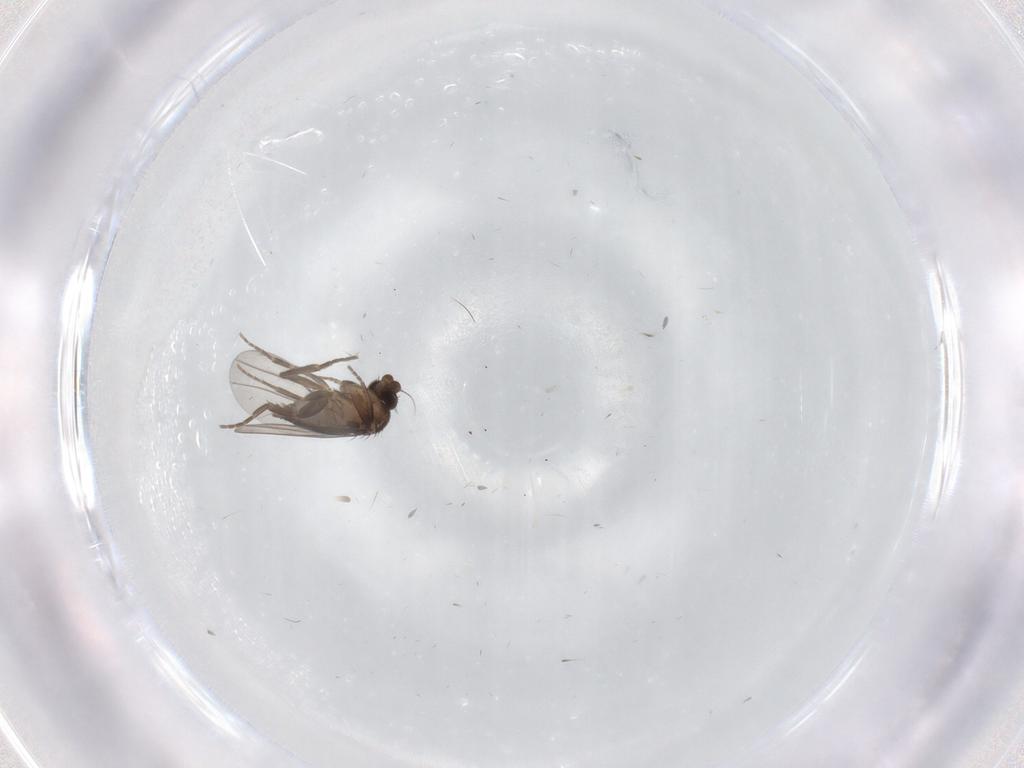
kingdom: Animalia
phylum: Arthropoda
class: Insecta
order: Diptera
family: Phoridae
